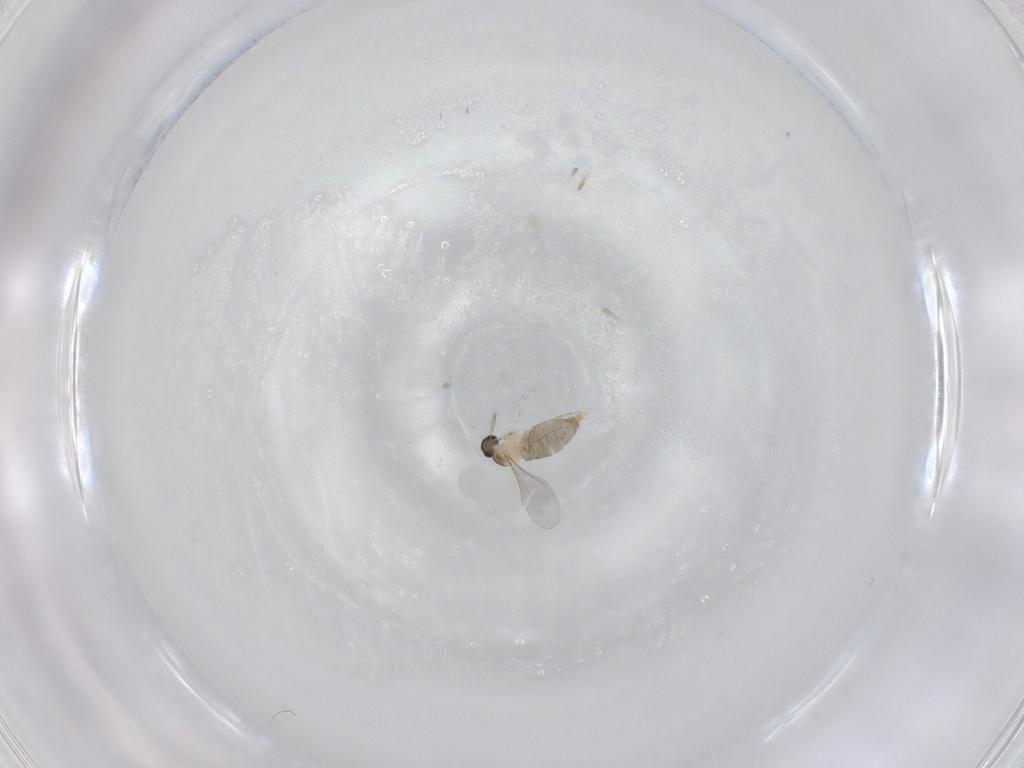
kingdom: Animalia
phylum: Arthropoda
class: Insecta
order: Diptera
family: Cecidomyiidae
